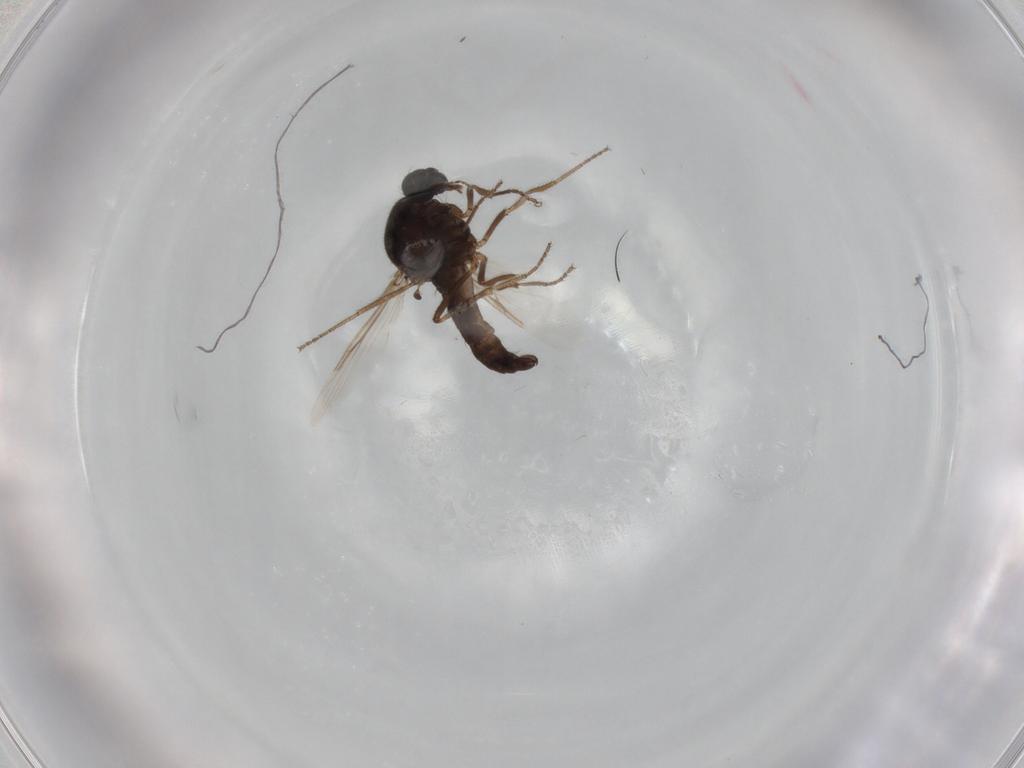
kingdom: Animalia
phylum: Arthropoda
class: Insecta
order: Diptera
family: Ceratopogonidae
